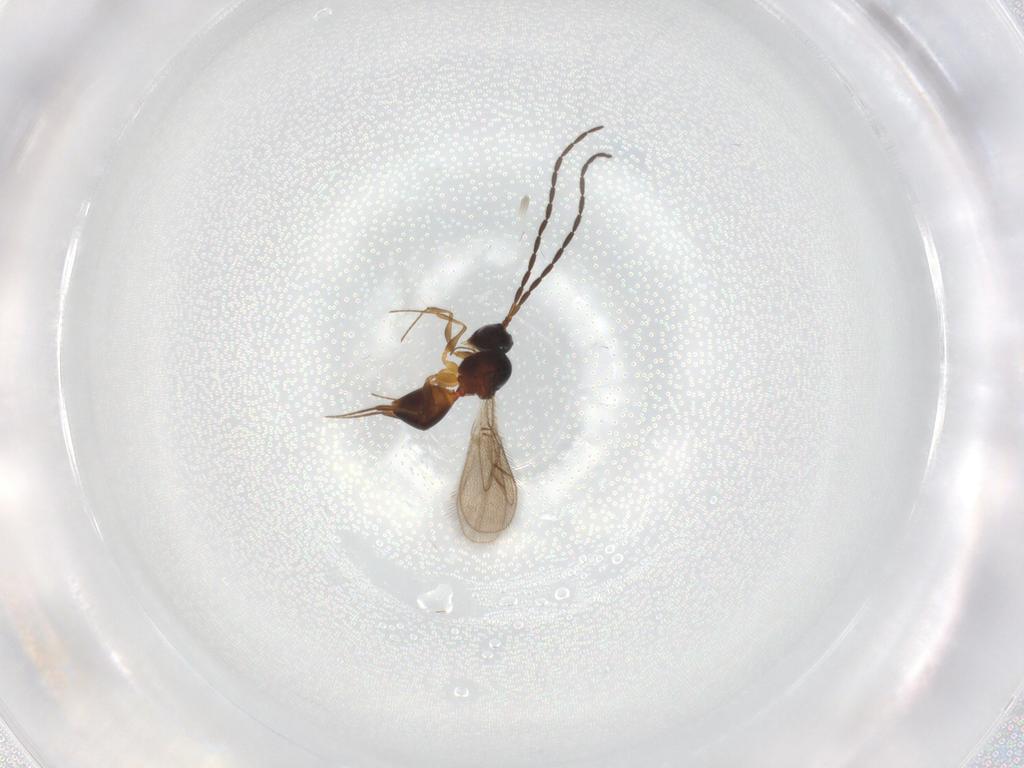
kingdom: Animalia
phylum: Arthropoda
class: Insecta
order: Hymenoptera
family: Figitidae
